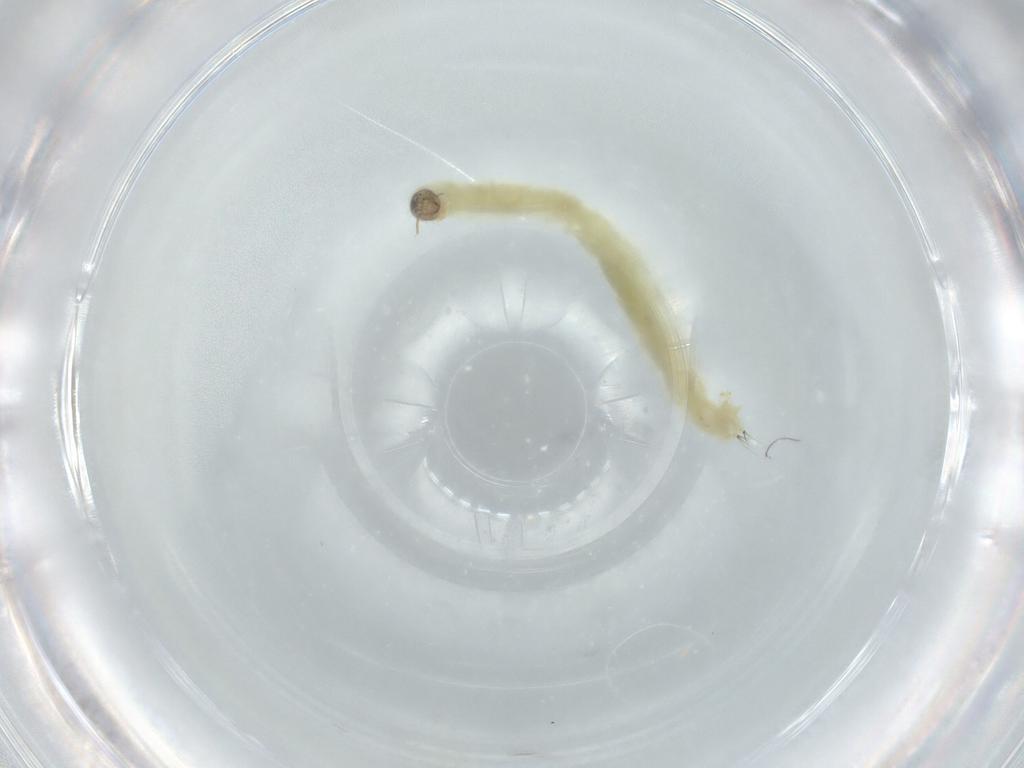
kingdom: Animalia
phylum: Arthropoda
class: Insecta
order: Diptera
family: Chironomidae
